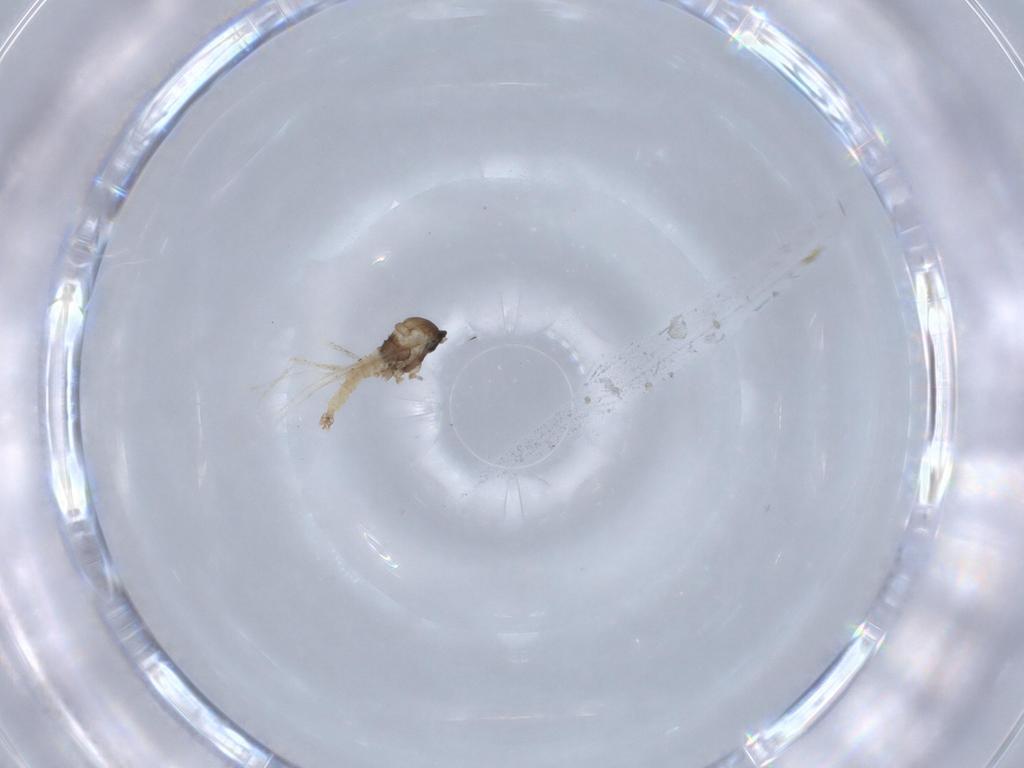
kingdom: Animalia
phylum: Arthropoda
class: Insecta
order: Diptera
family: Cecidomyiidae
